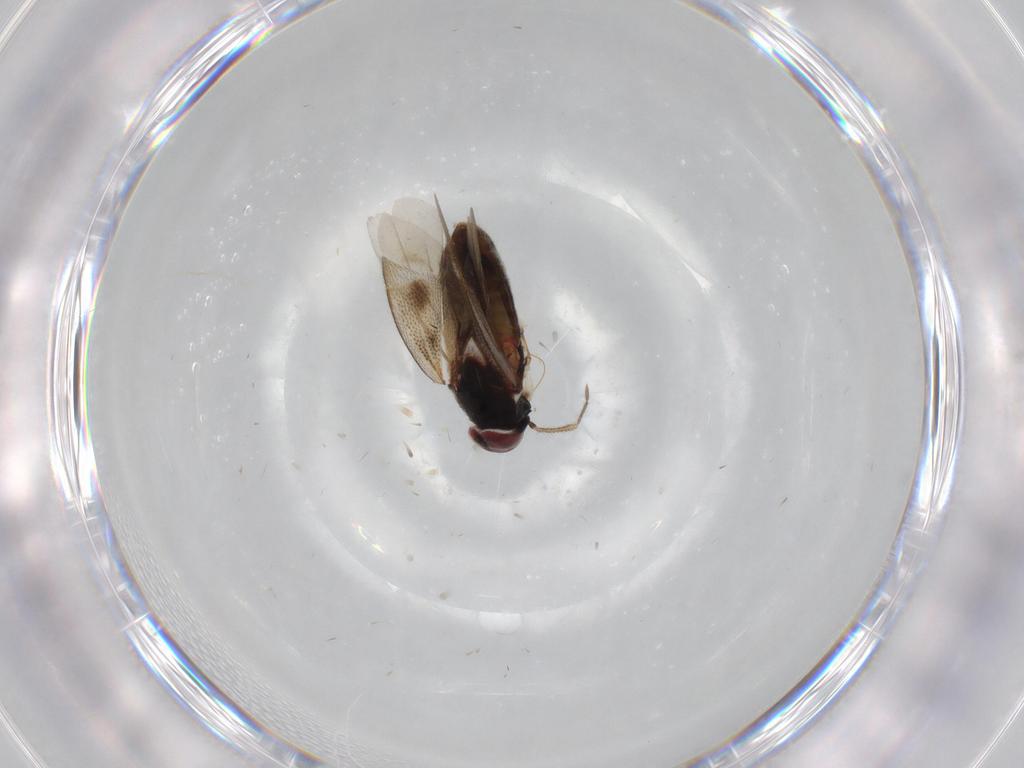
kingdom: Animalia
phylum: Arthropoda
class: Insecta
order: Hemiptera
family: Miridae
